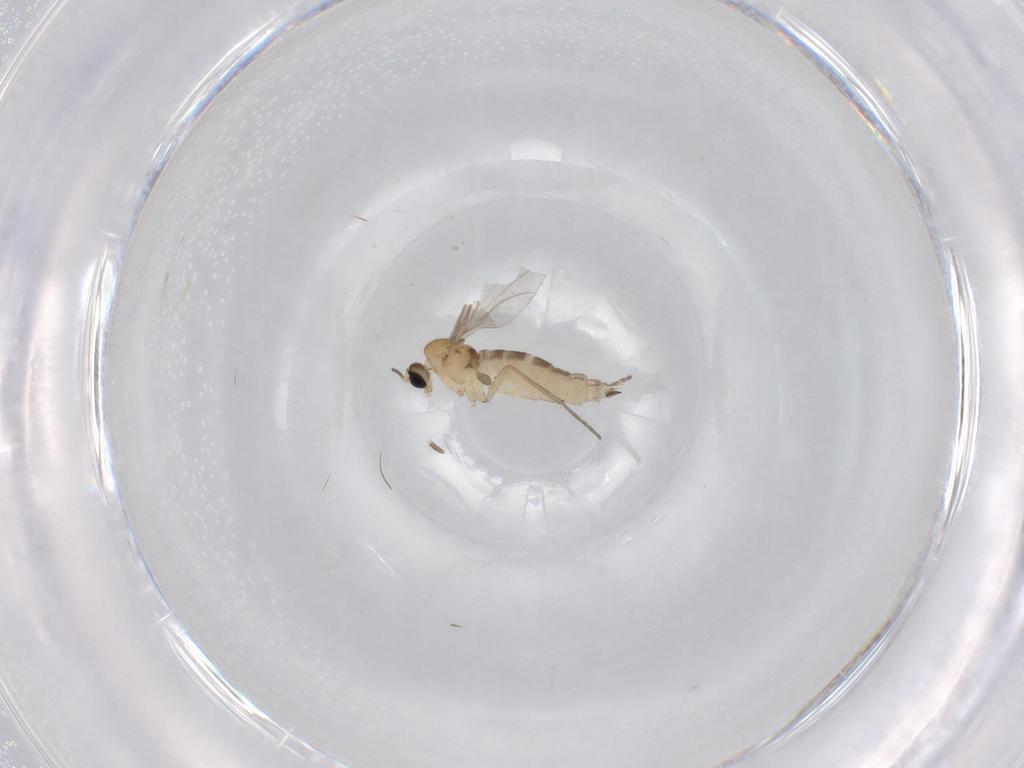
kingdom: Animalia
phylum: Arthropoda
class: Insecta
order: Diptera
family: Sciaridae
